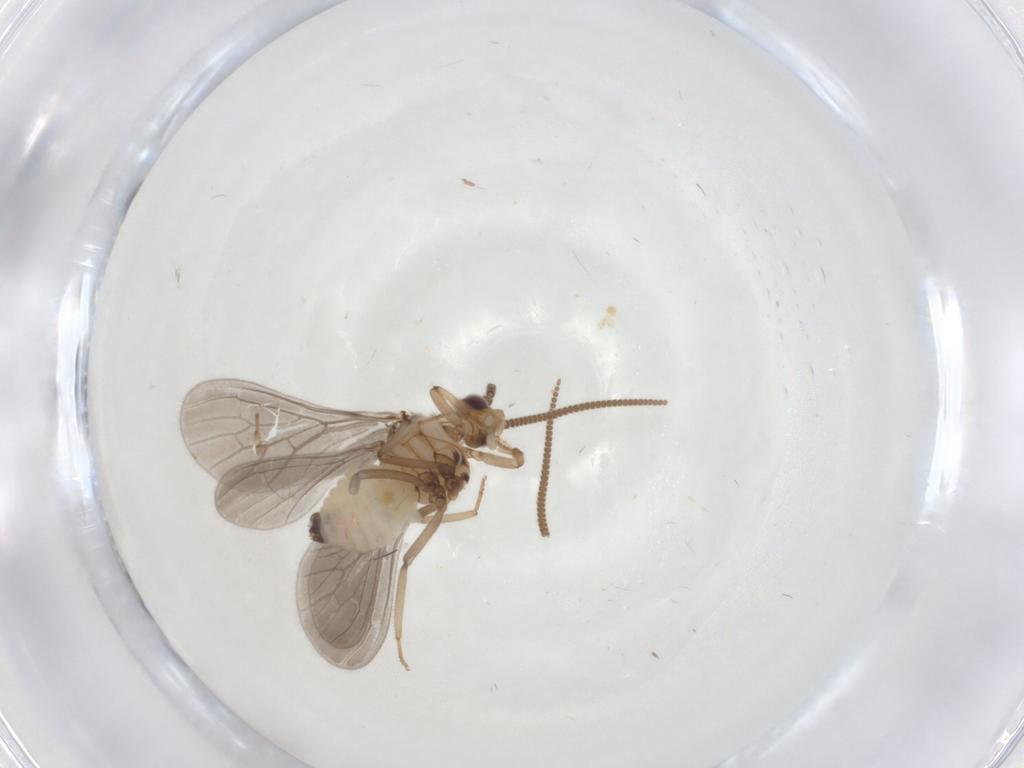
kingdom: Animalia
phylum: Arthropoda
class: Insecta
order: Neuroptera
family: Coniopterygidae
